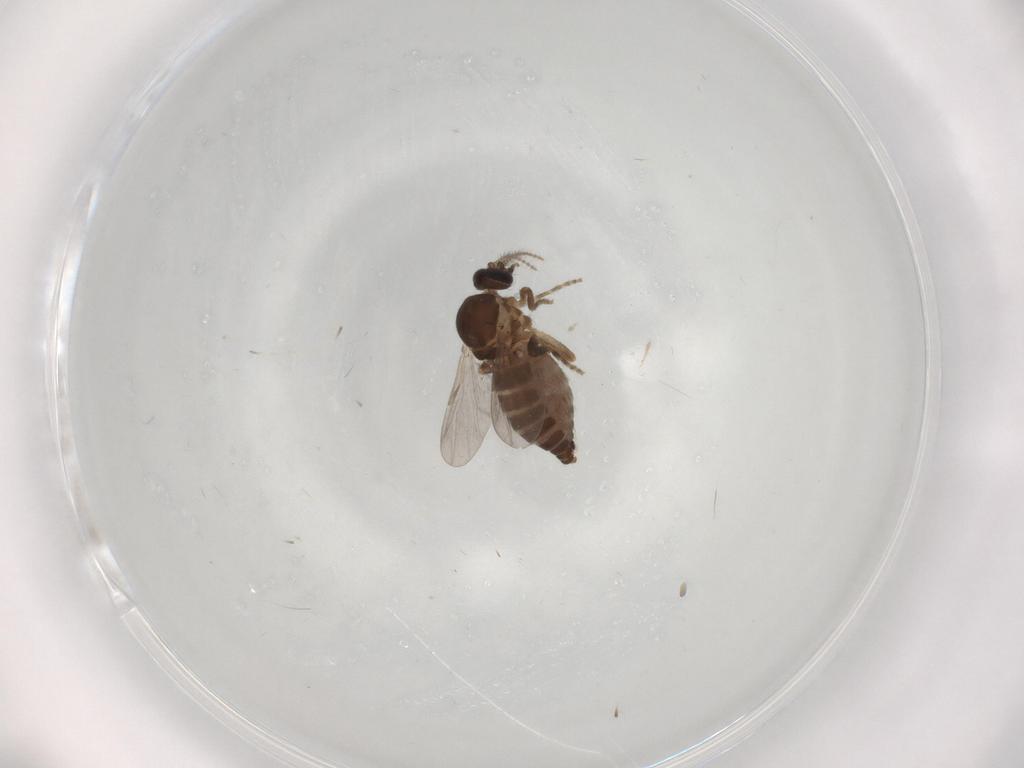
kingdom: Animalia
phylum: Arthropoda
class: Insecta
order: Diptera
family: Ceratopogonidae
